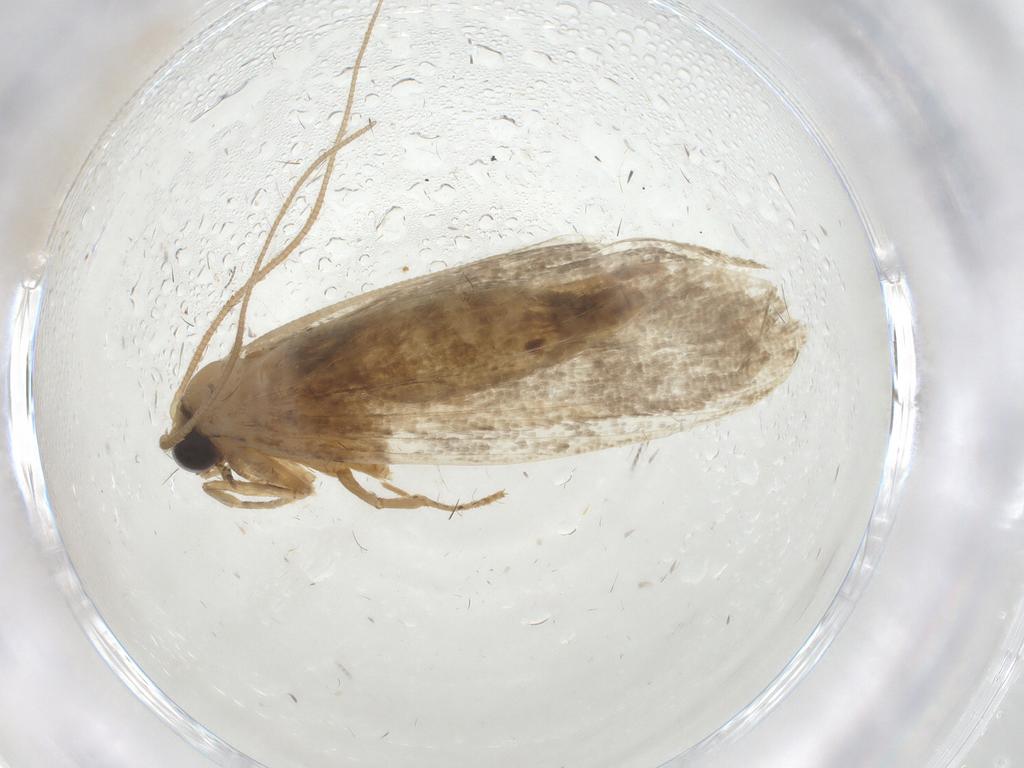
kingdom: Animalia
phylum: Arthropoda
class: Insecta
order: Lepidoptera
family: Tineidae
